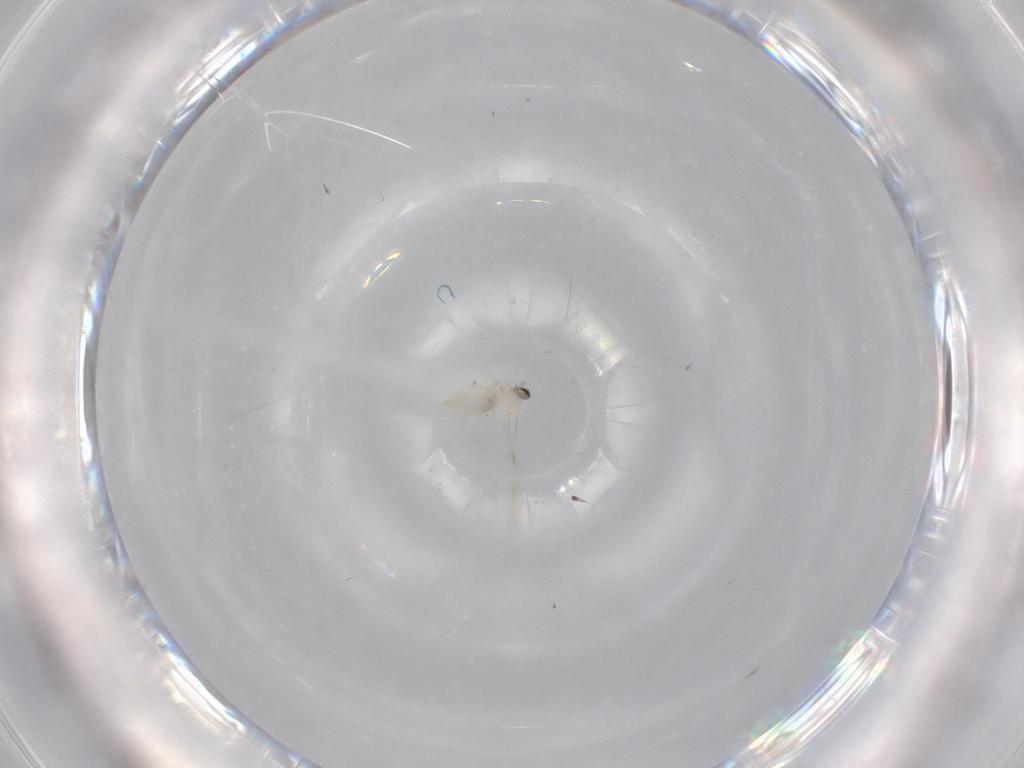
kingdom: Animalia
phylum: Arthropoda
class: Insecta
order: Diptera
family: Cecidomyiidae
